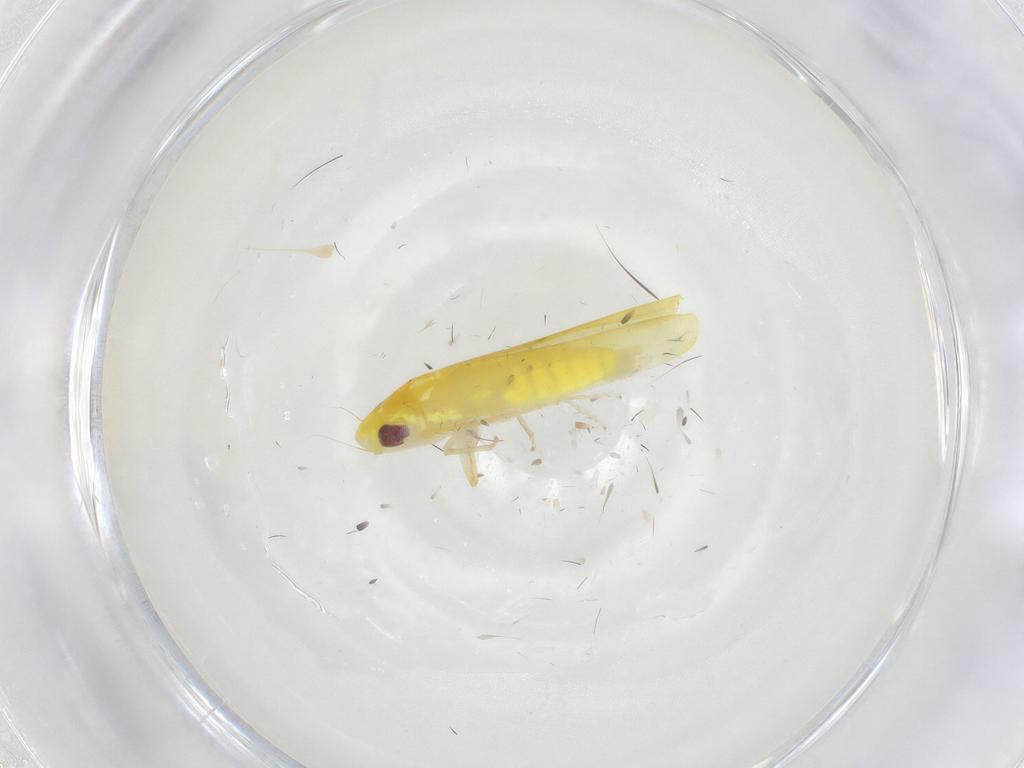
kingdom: Animalia
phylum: Arthropoda
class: Insecta
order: Hemiptera
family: Cicadellidae
